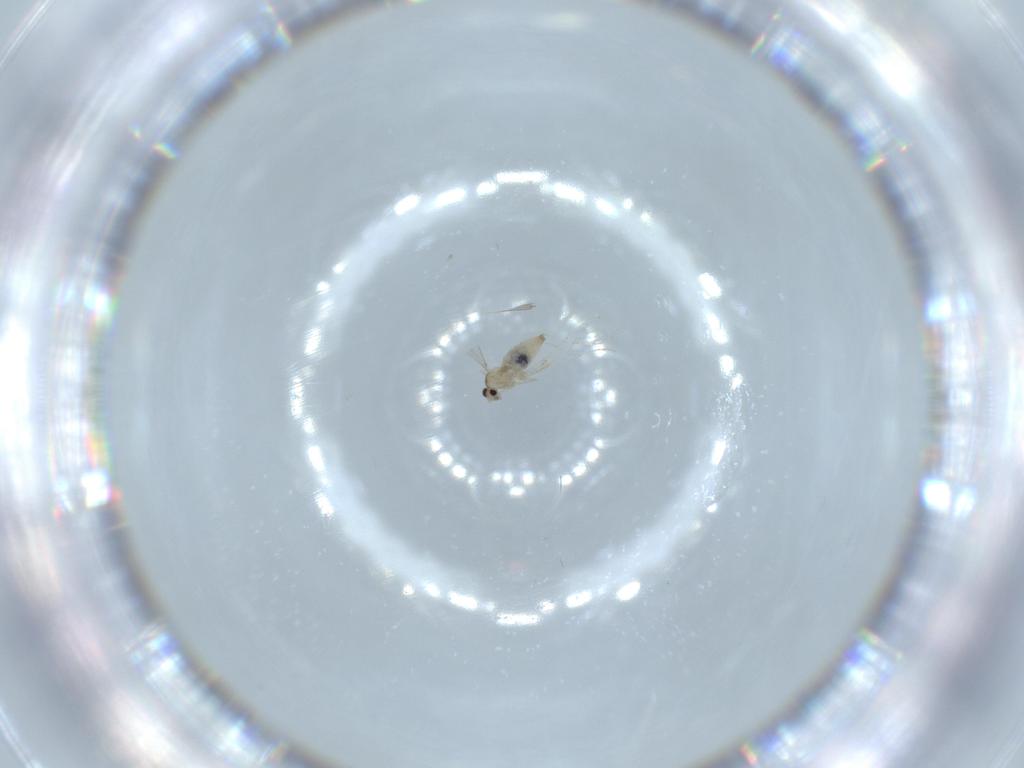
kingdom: Animalia
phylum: Arthropoda
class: Insecta
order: Diptera
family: Cecidomyiidae
